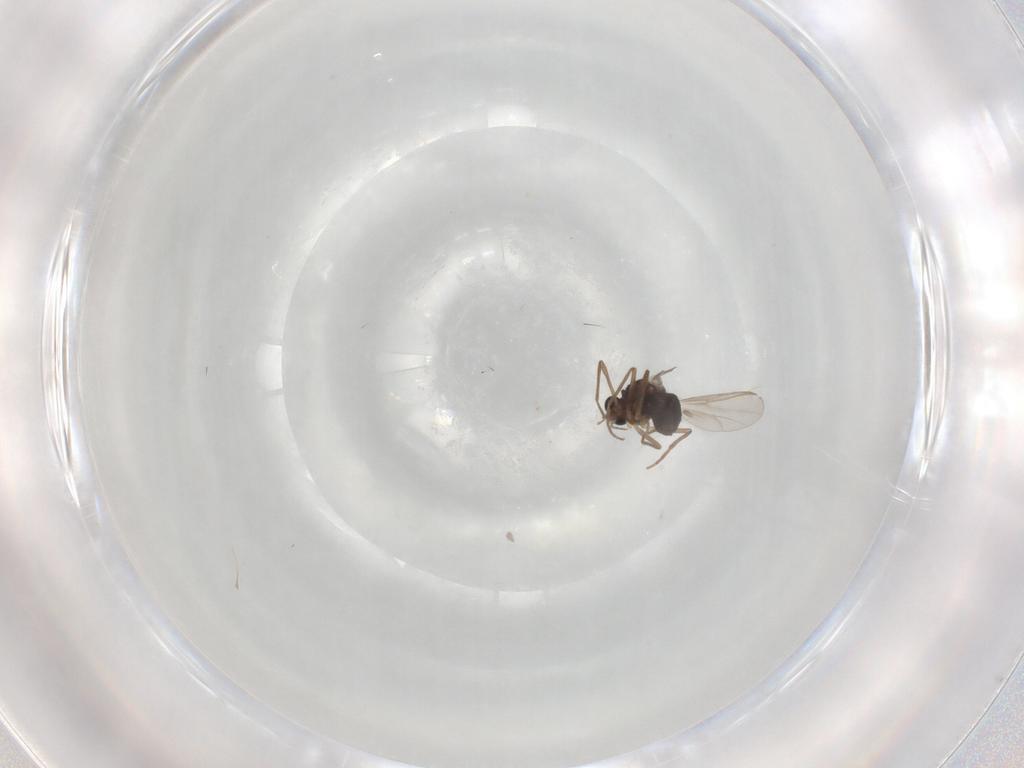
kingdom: Animalia
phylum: Arthropoda
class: Insecta
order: Diptera
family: Chironomidae
